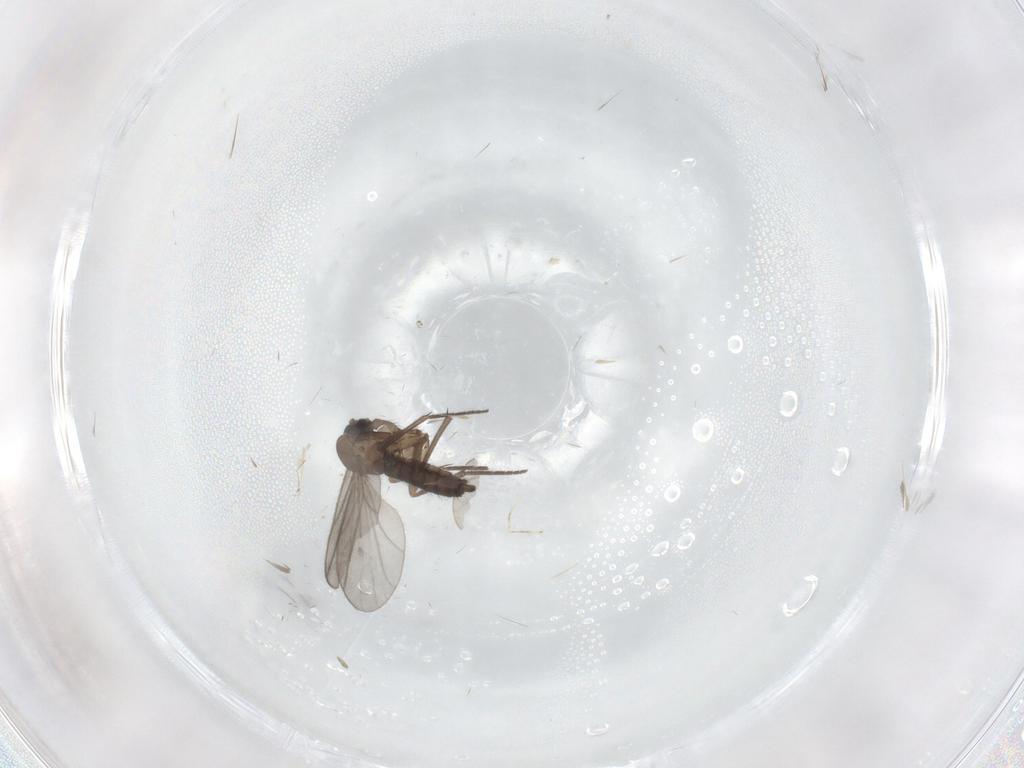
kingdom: Animalia
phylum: Arthropoda
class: Insecta
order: Diptera
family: Sciaridae
